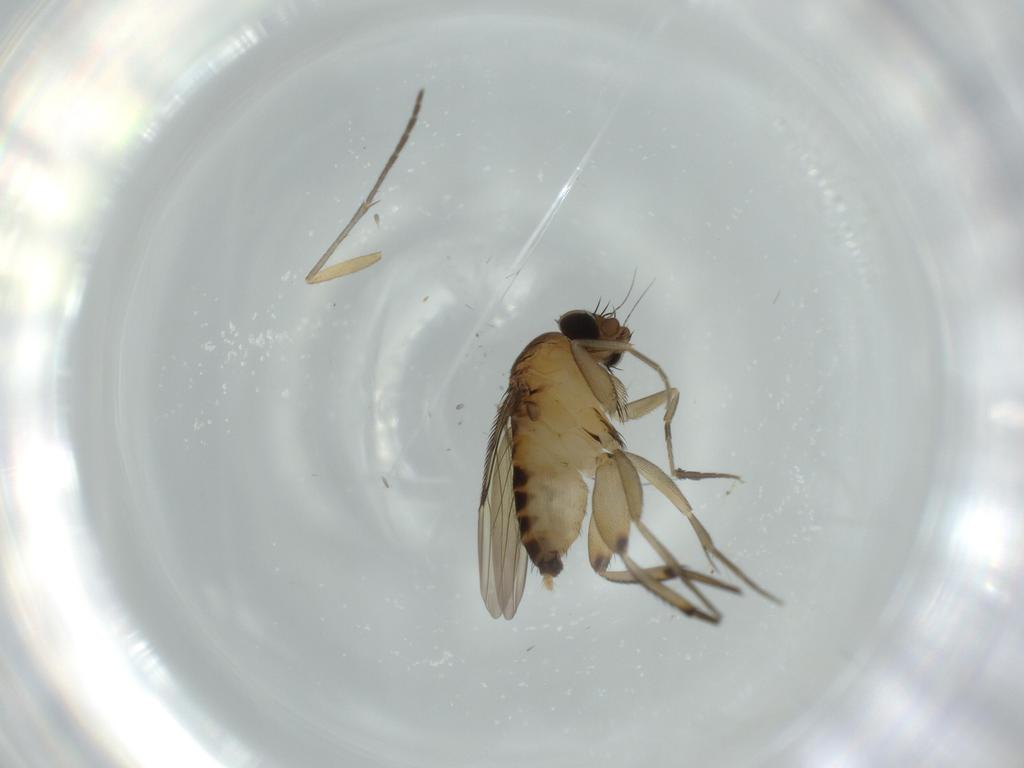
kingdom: Animalia
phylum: Arthropoda
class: Insecta
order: Diptera
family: Phoridae
